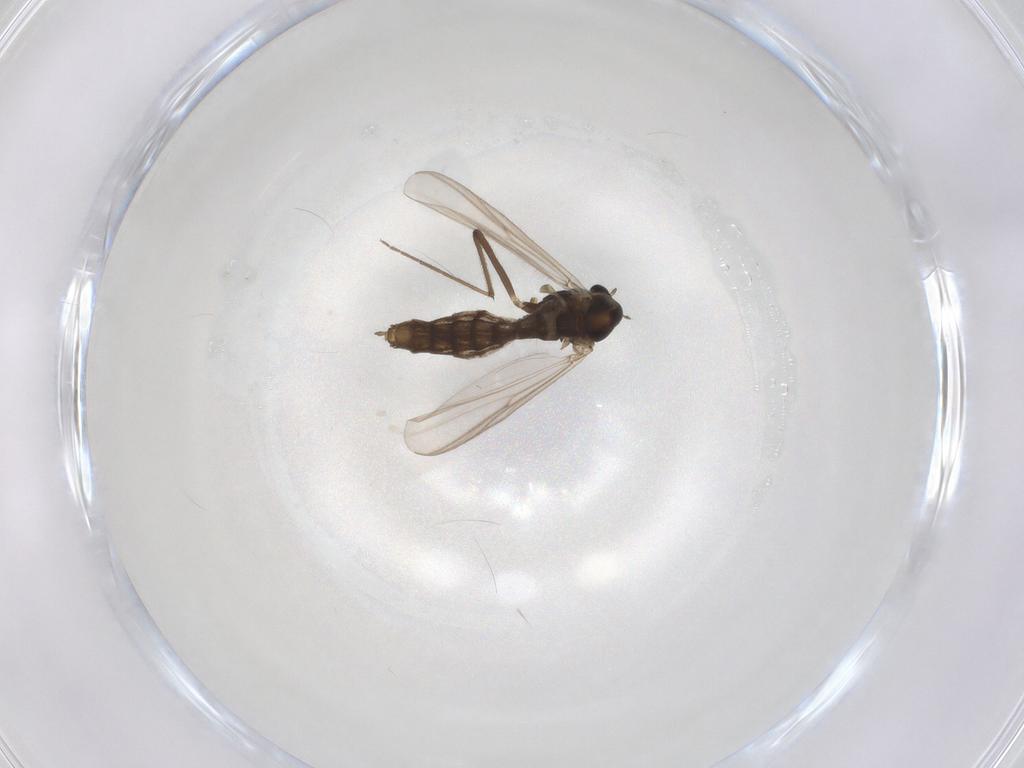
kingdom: Animalia
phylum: Arthropoda
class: Insecta
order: Diptera
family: Chironomidae
